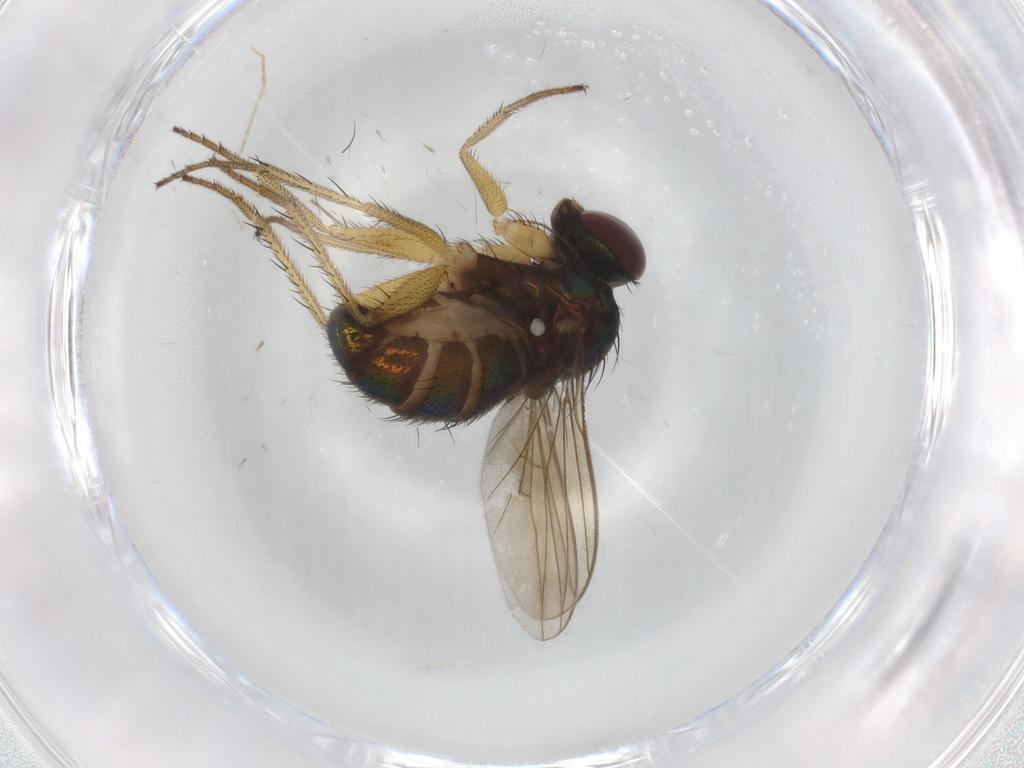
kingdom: Animalia
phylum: Arthropoda
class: Insecta
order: Diptera
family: Dolichopodidae
